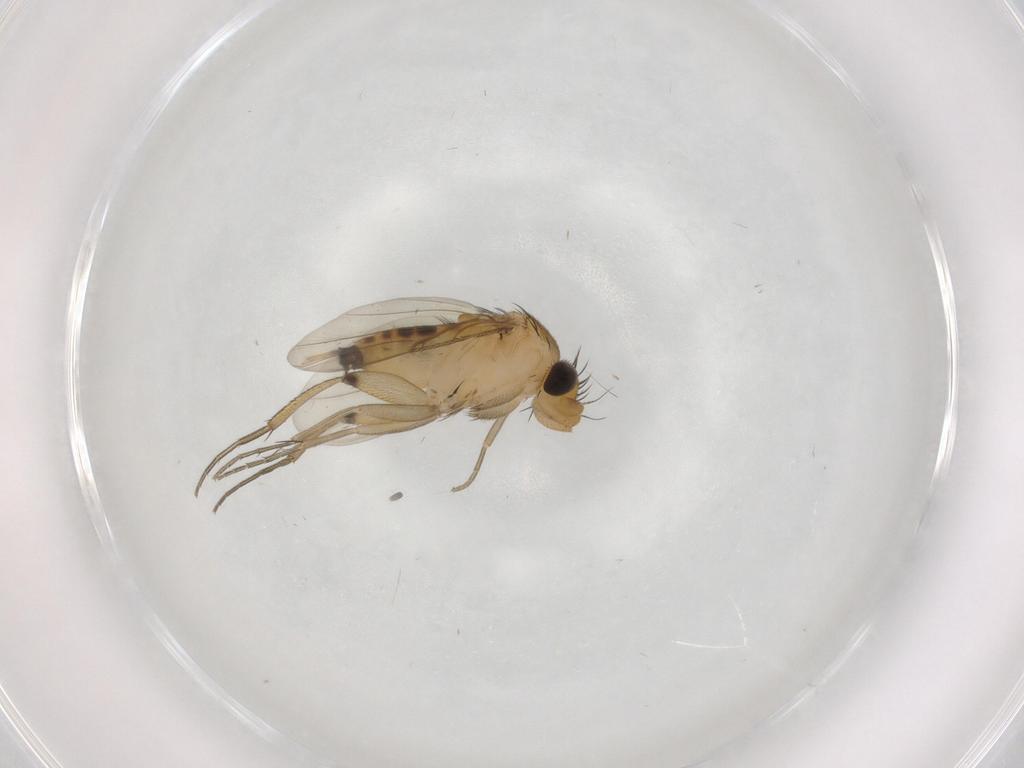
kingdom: Animalia
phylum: Arthropoda
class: Insecta
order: Diptera
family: Phoridae
